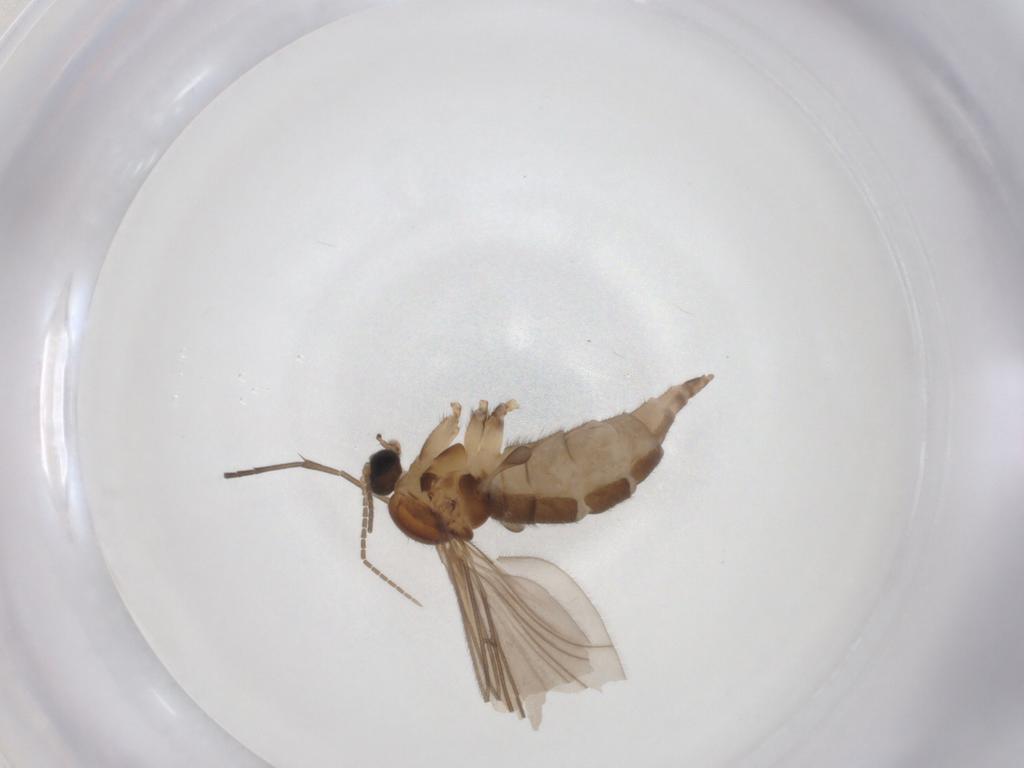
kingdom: Animalia
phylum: Arthropoda
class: Insecta
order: Diptera
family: Sciaridae
